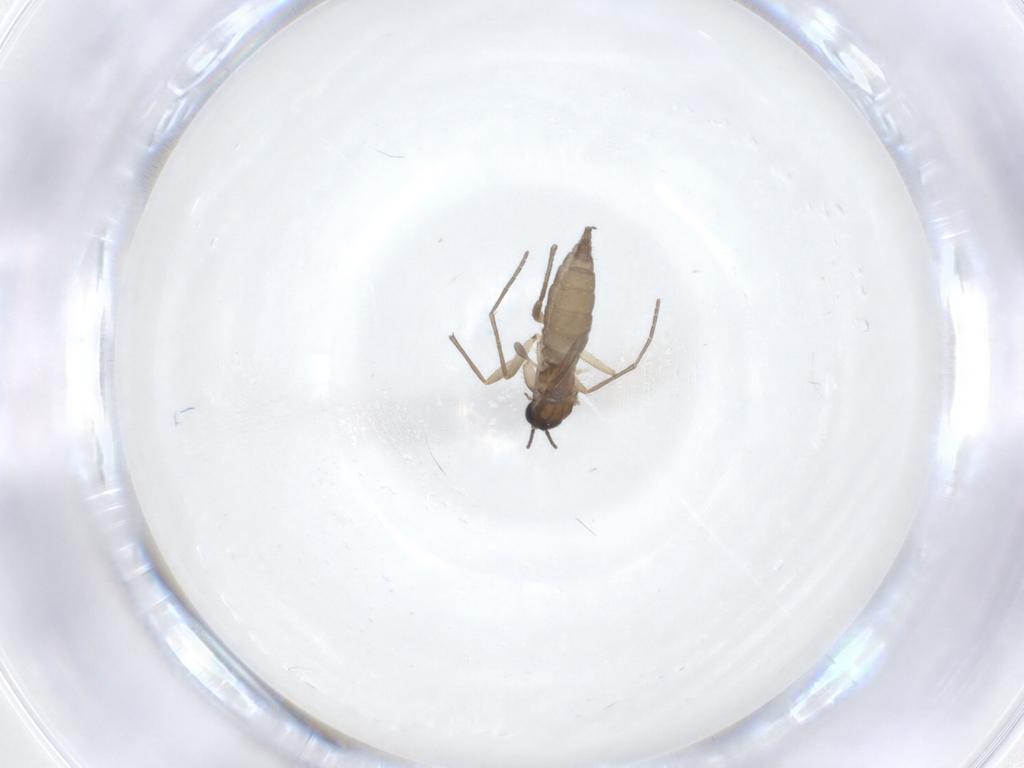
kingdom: Animalia
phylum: Arthropoda
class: Insecta
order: Diptera
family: Sciaridae
